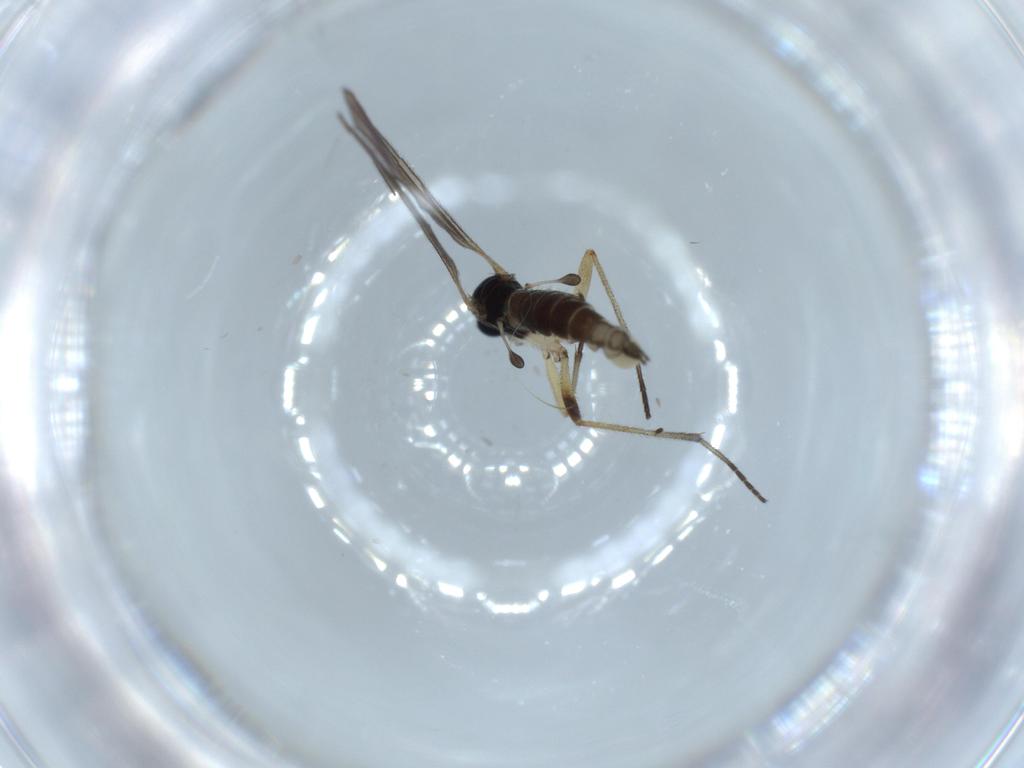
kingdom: Animalia
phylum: Arthropoda
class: Insecta
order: Diptera
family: Sciaridae
